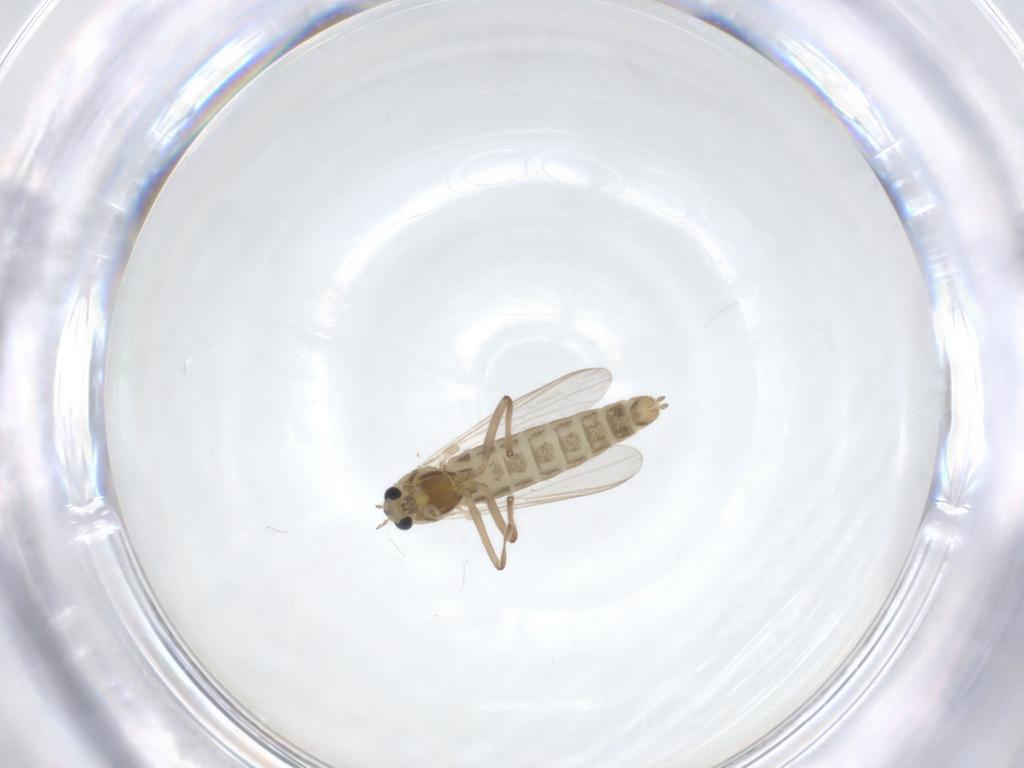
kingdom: Animalia
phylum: Arthropoda
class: Insecta
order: Diptera
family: Chironomidae
